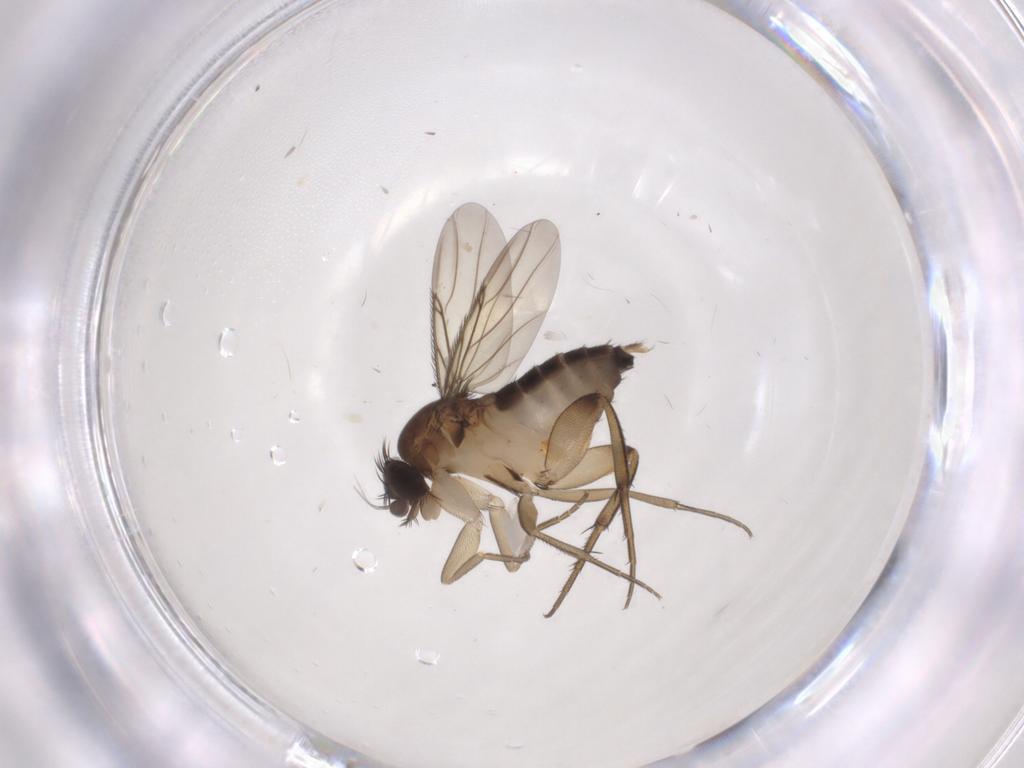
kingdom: Animalia
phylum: Arthropoda
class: Insecta
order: Diptera
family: Phoridae
